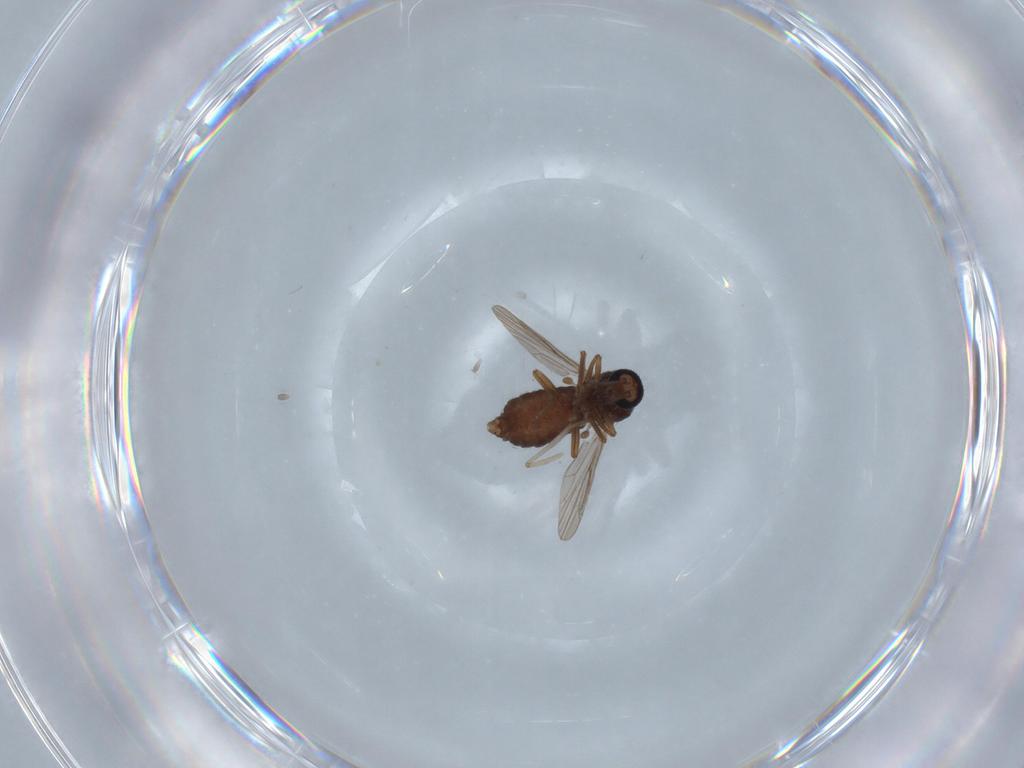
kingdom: Animalia
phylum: Arthropoda
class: Insecta
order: Diptera
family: Ceratopogonidae
